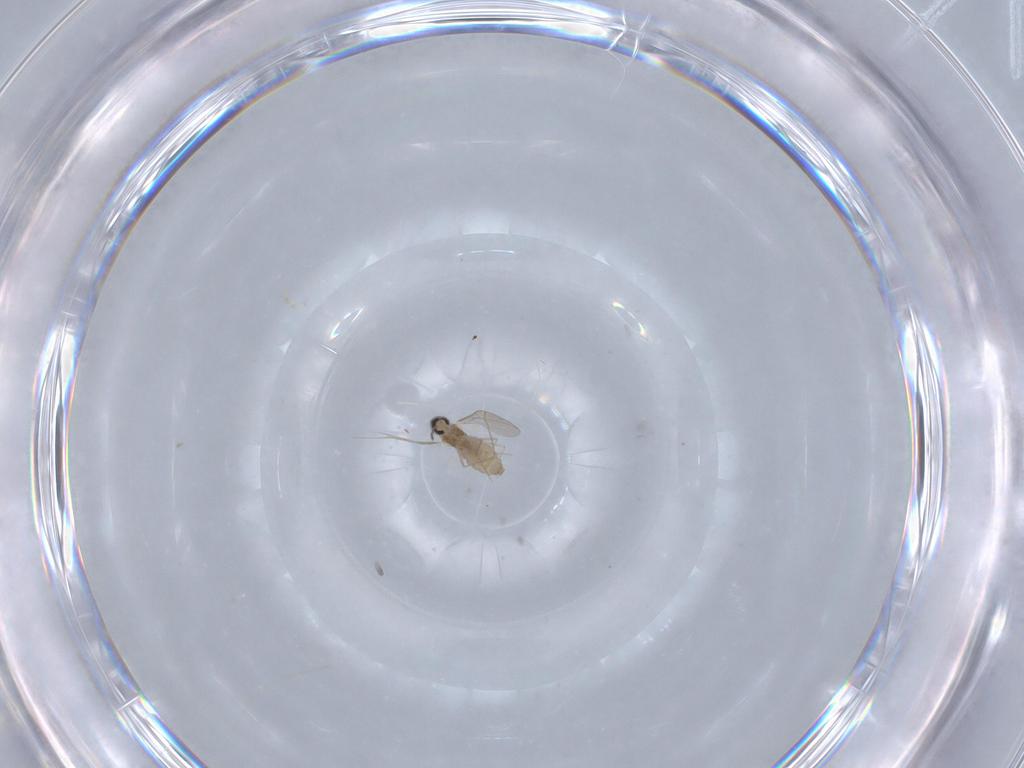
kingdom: Animalia
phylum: Arthropoda
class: Insecta
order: Diptera
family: Cecidomyiidae
